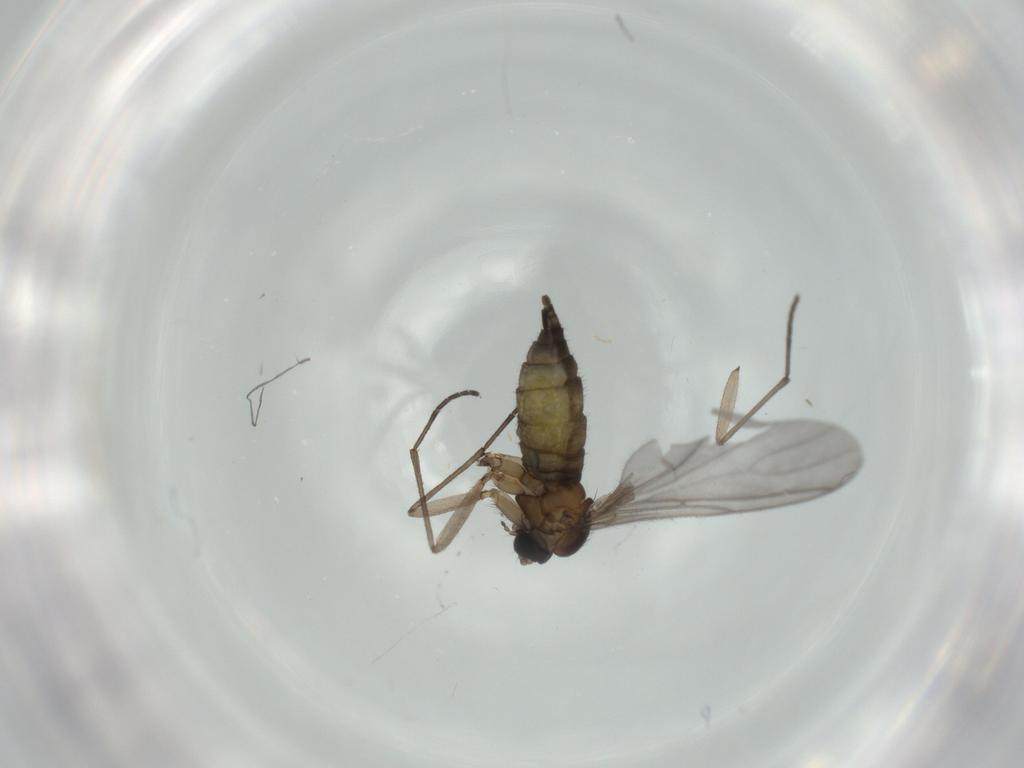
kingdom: Animalia
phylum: Arthropoda
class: Insecta
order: Diptera
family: Sciaridae
